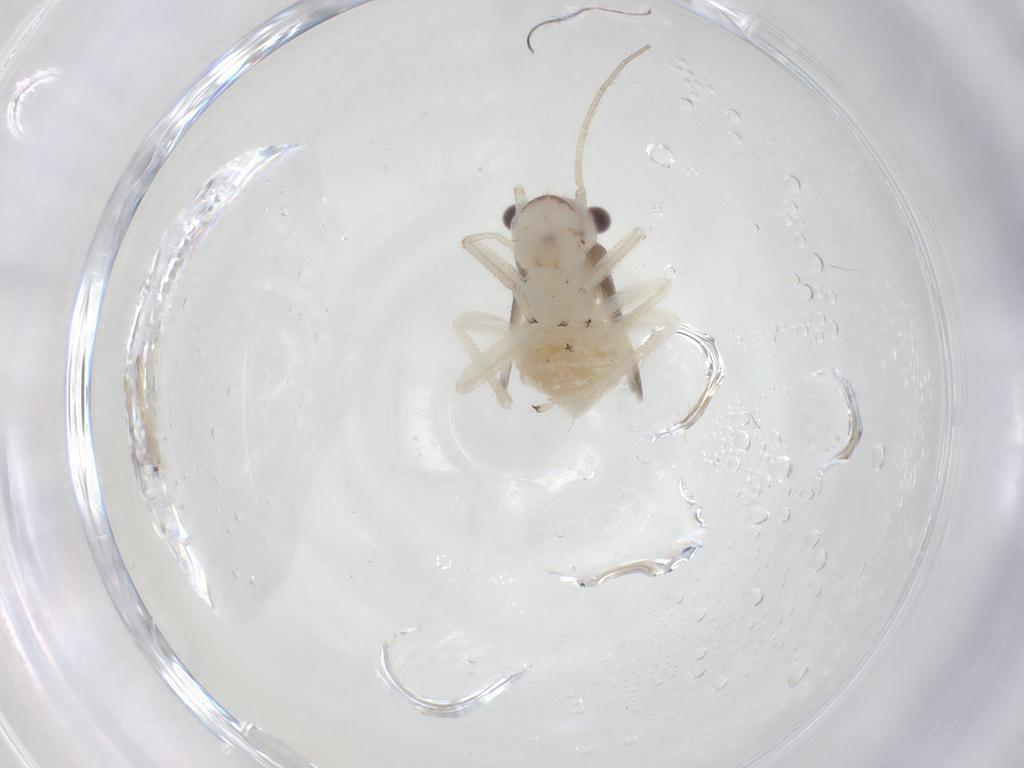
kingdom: Animalia
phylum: Arthropoda
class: Insecta
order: Psocodea
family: Amphipsocidae
